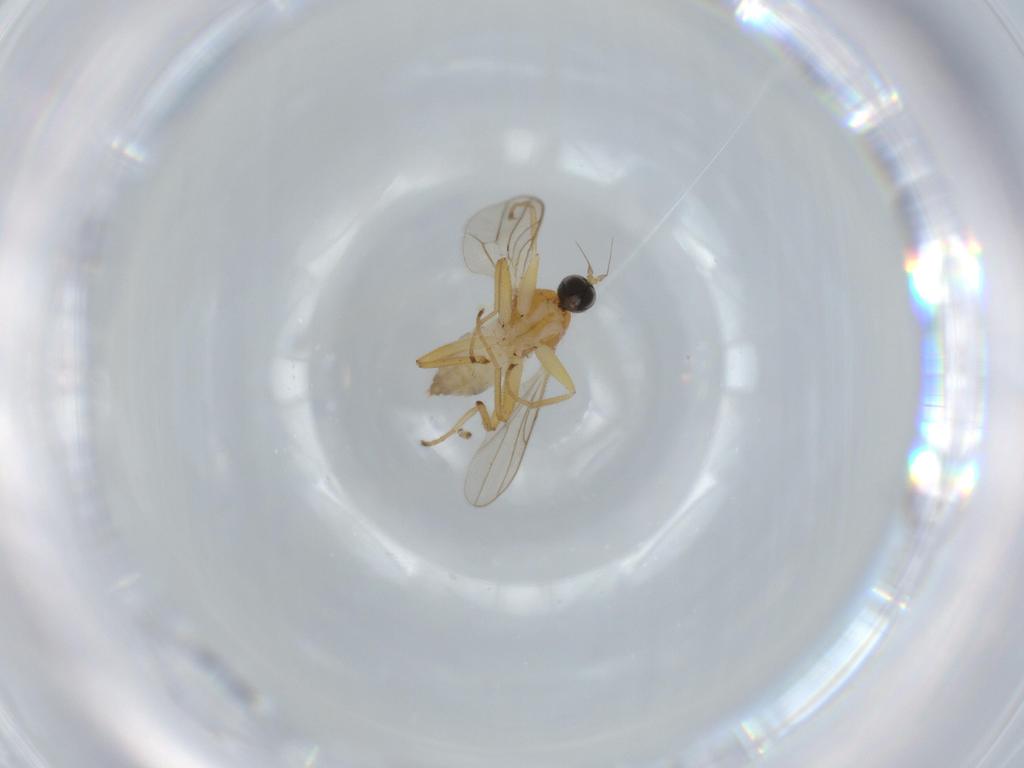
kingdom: Animalia
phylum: Arthropoda
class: Insecta
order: Diptera
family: Hybotidae
